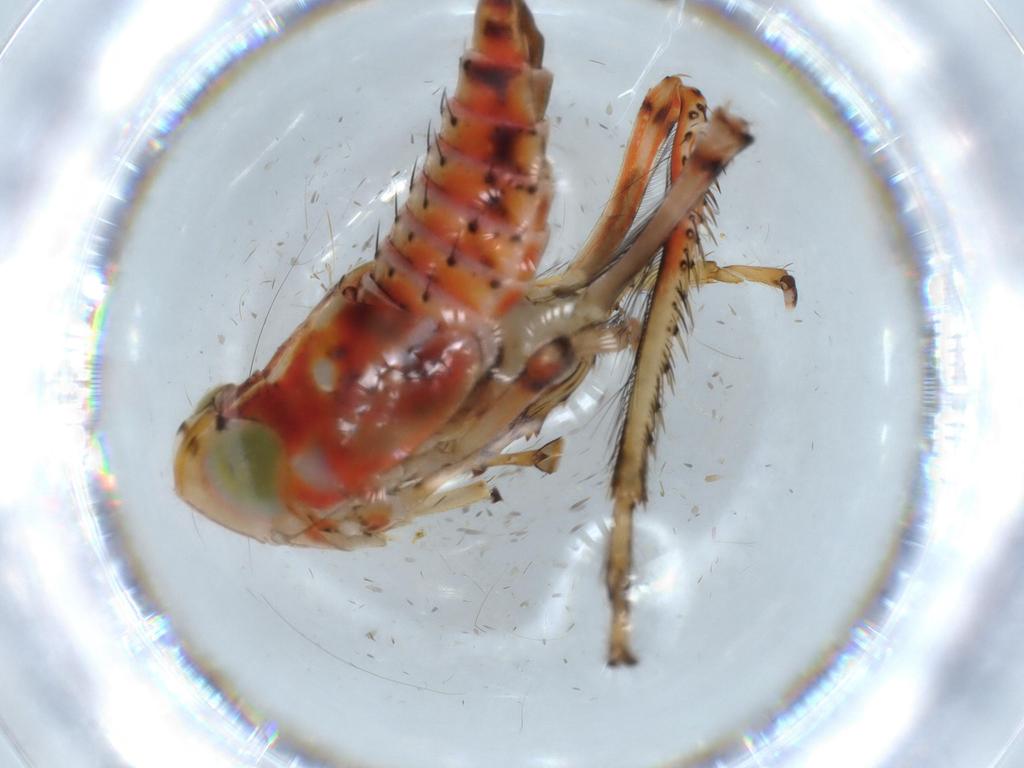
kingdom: Animalia
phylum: Arthropoda
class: Insecta
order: Hemiptera
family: Cicadellidae
